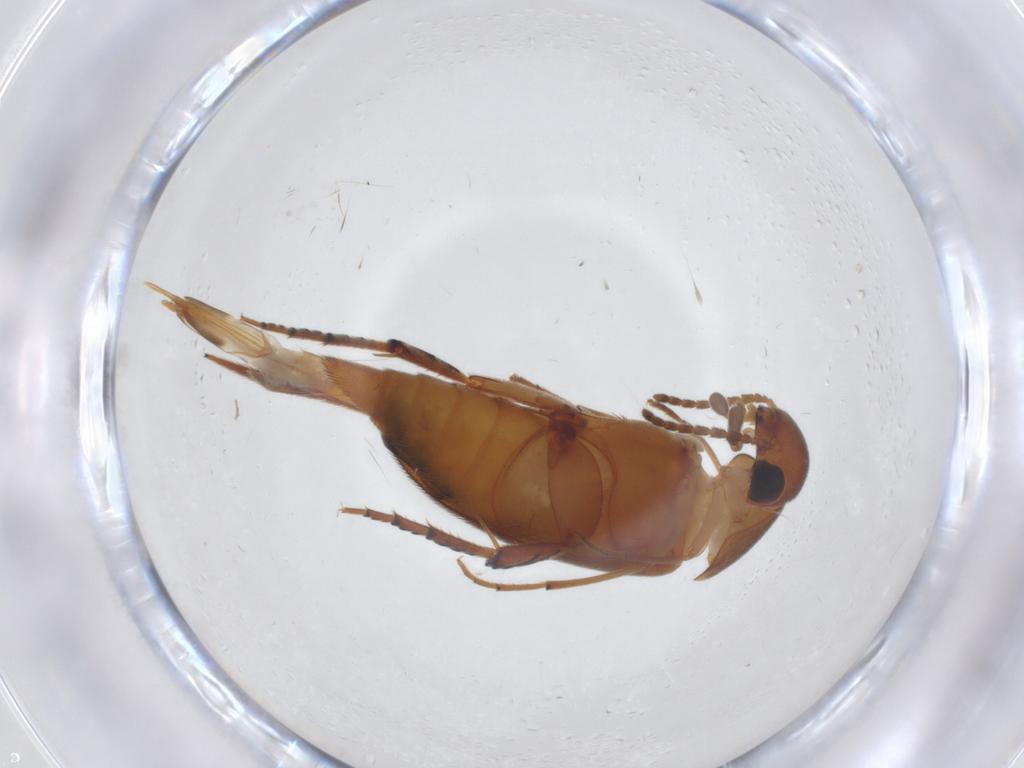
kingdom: Animalia
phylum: Arthropoda
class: Insecta
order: Coleoptera
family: Mordellidae
